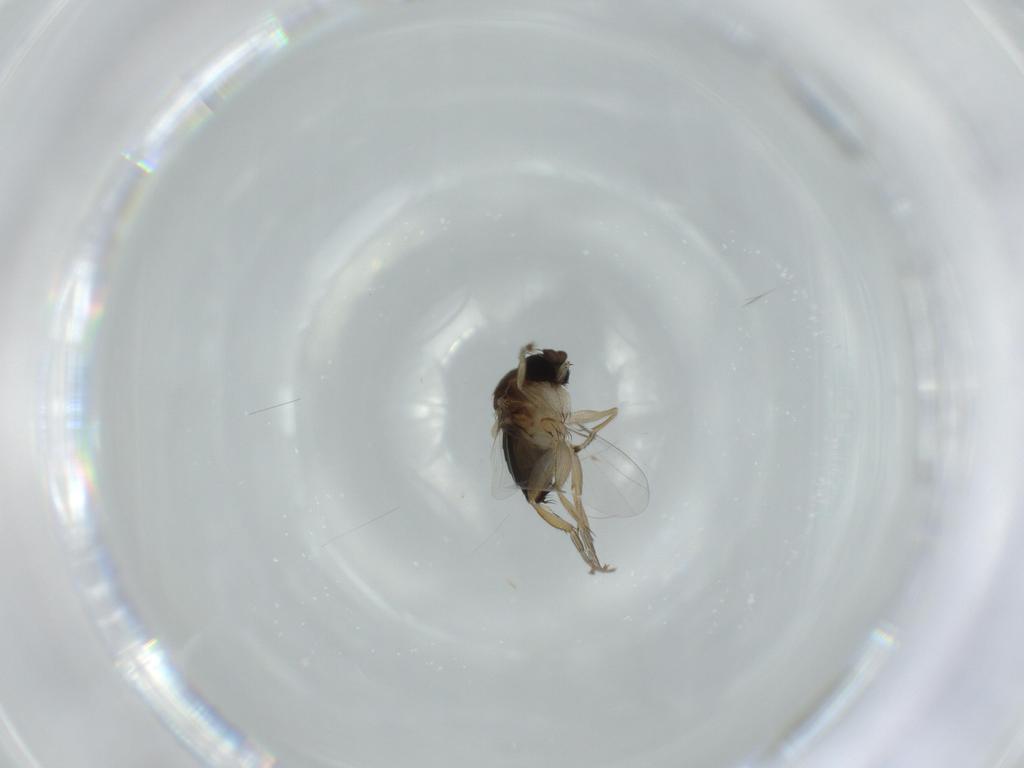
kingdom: Animalia
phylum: Arthropoda
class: Insecta
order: Diptera
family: Phoridae
